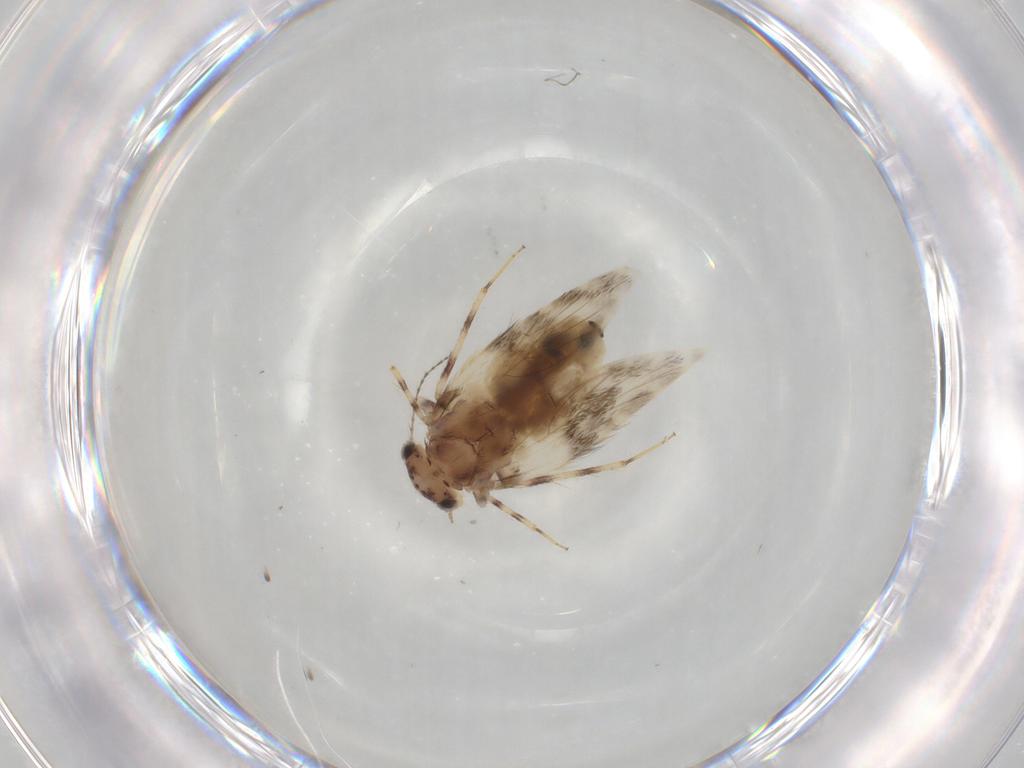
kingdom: Animalia
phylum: Arthropoda
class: Insecta
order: Psocodea
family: Lepidopsocidae
